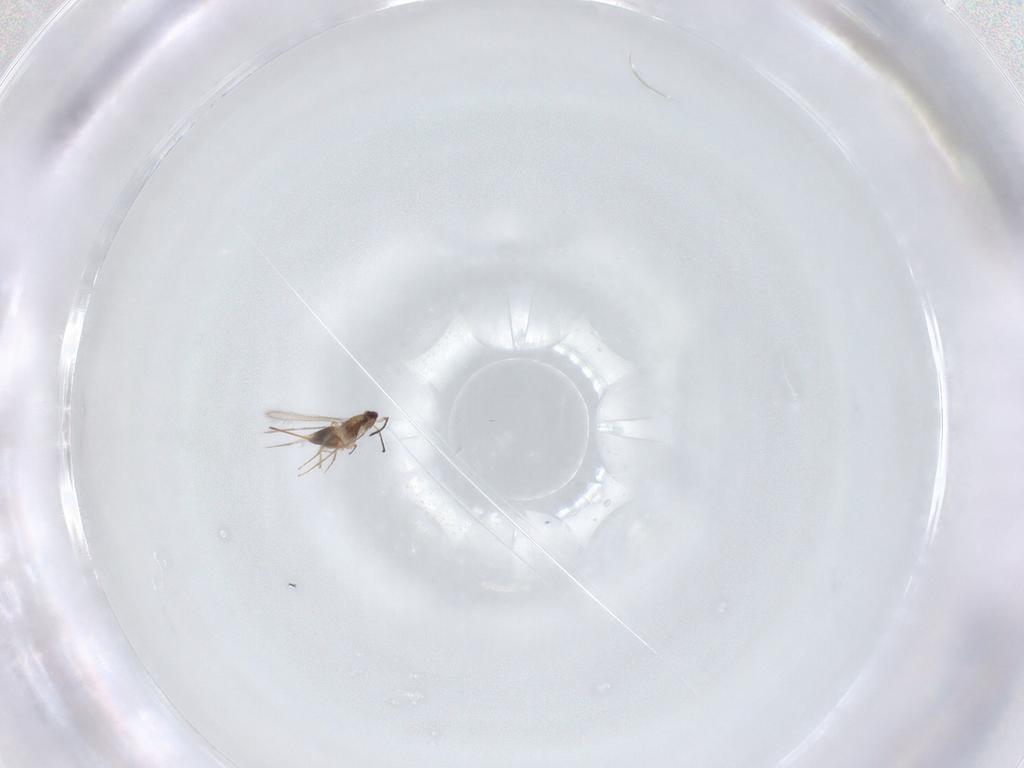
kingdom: Animalia
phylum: Arthropoda
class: Insecta
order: Hymenoptera
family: Mymaridae
